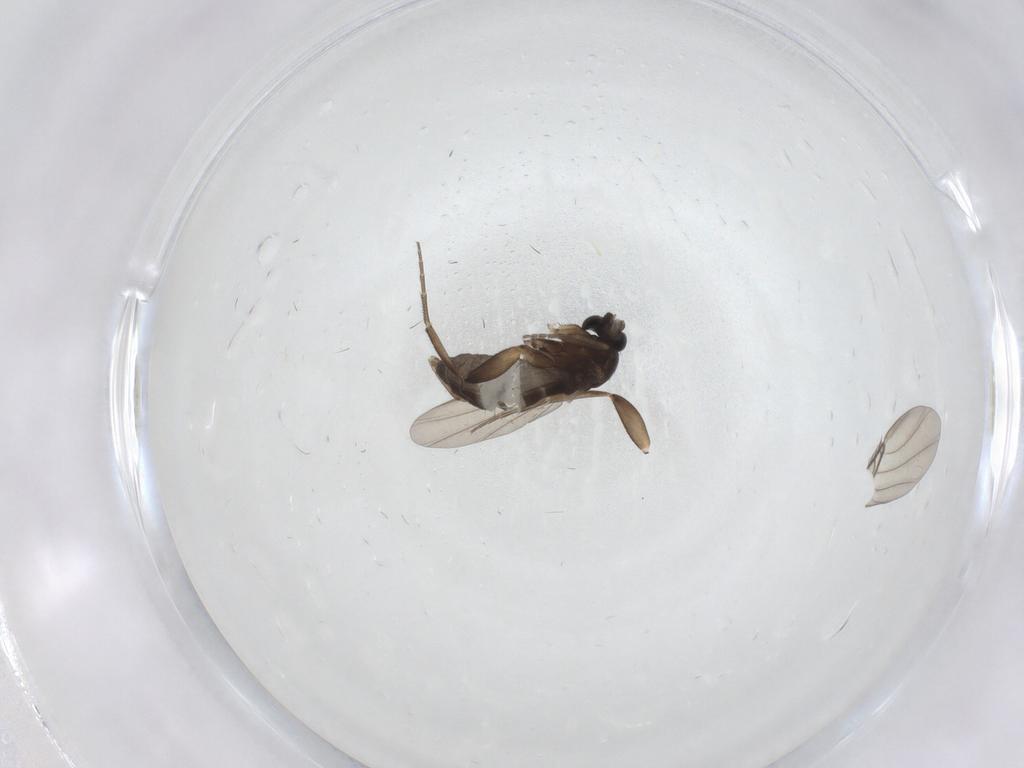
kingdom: Animalia
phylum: Arthropoda
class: Insecta
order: Diptera
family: Phoridae
